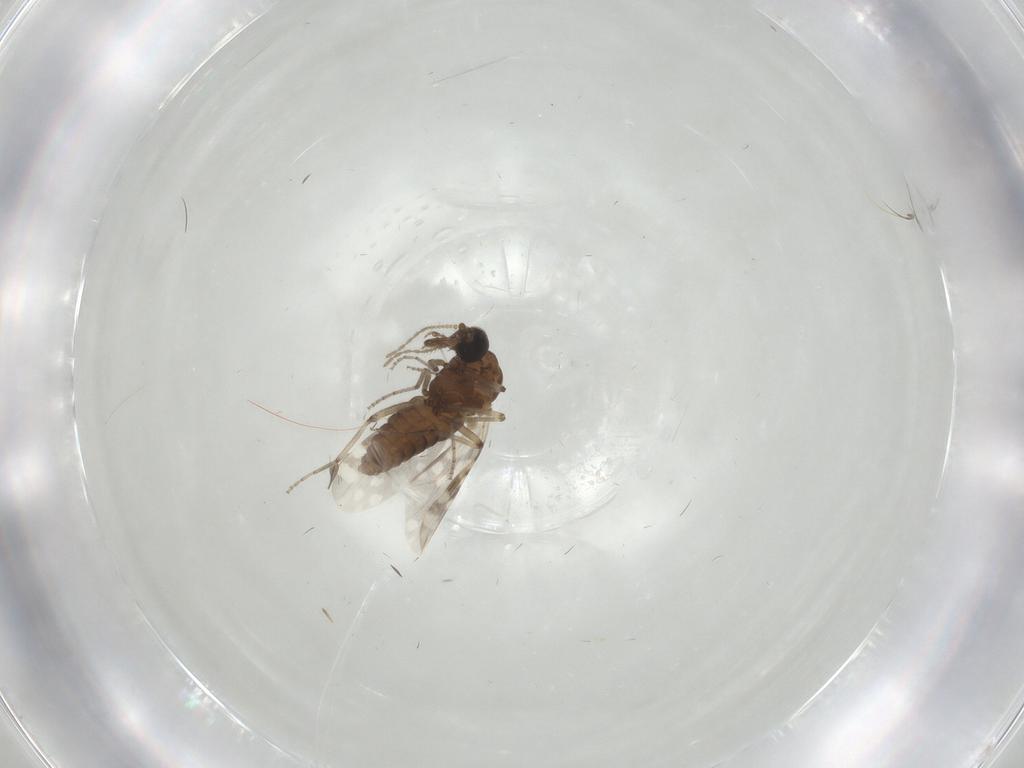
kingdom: Animalia
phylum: Arthropoda
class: Insecta
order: Diptera
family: Sciaridae
